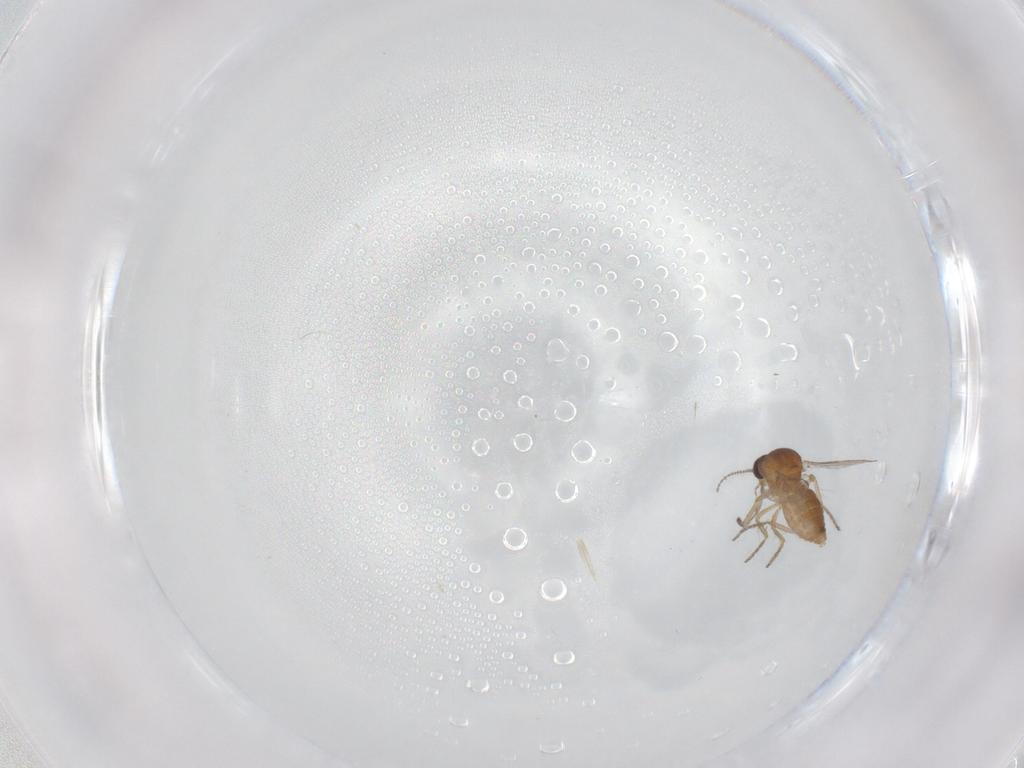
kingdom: Animalia
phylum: Arthropoda
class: Insecta
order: Diptera
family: Ceratopogonidae
